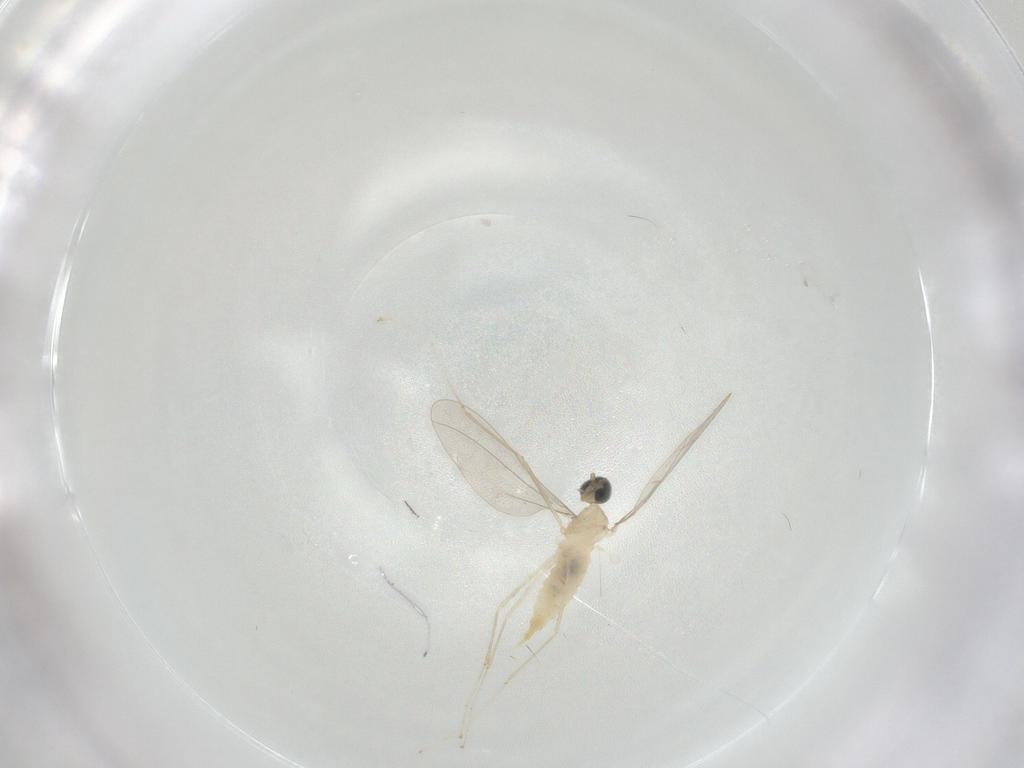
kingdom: Animalia
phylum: Arthropoda
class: Insecta
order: Diptera
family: Cecidomyiidae
